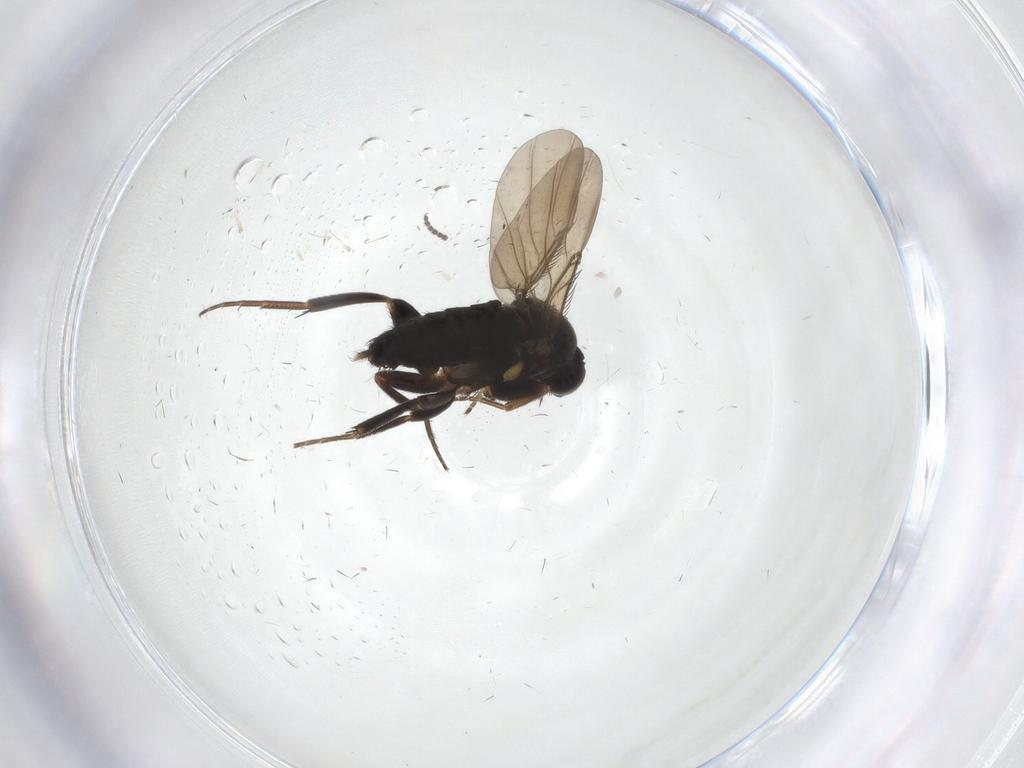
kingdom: Animalia
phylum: Arthropoda
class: Insecta
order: Diptera
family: Phoridae
